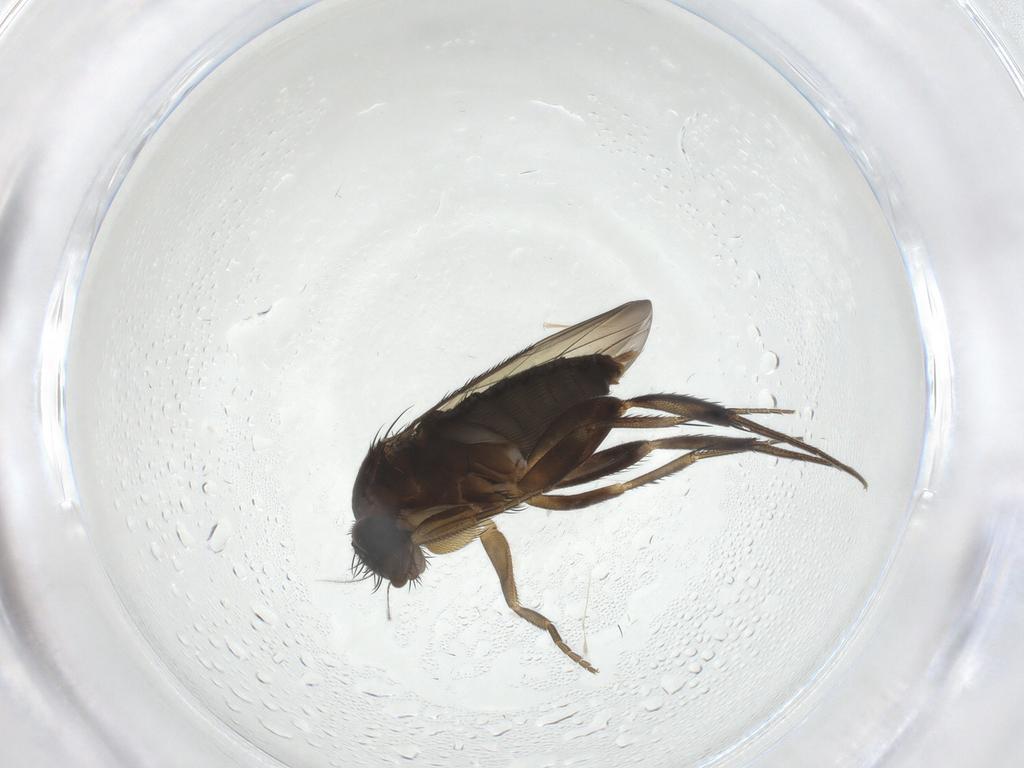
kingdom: Animalia
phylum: Arthropoda
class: Insecta
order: Diptera
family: Phoridae
